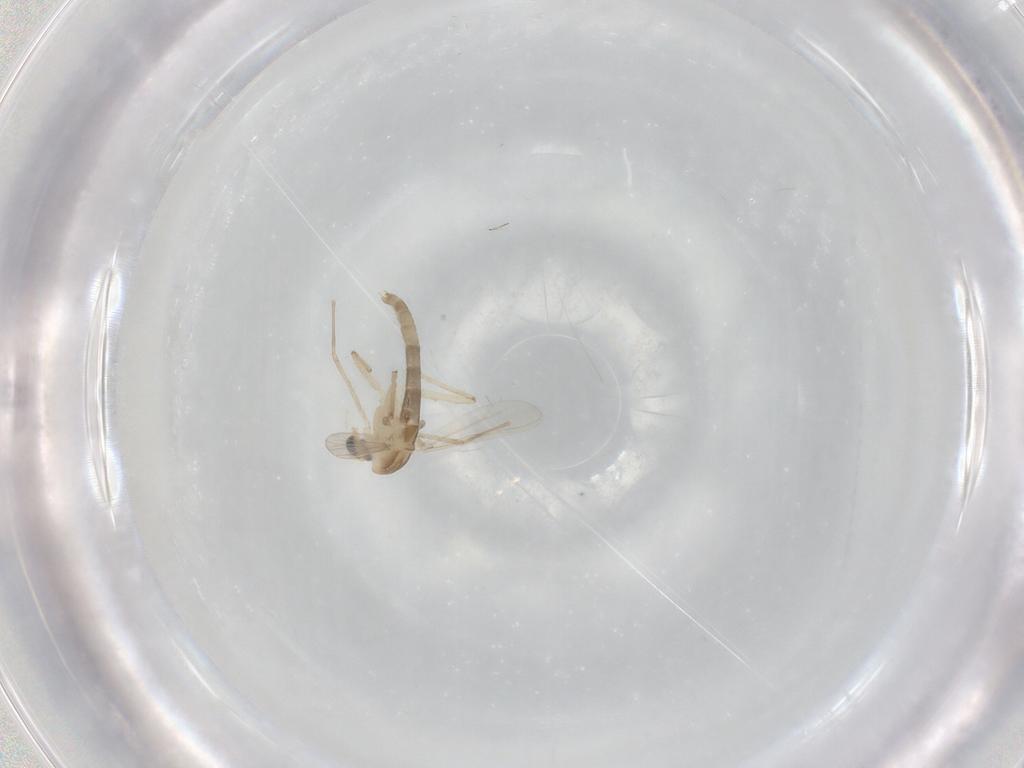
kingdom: Animalia
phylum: Arthropoda
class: Insecta
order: Diptera
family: Chironomidae
